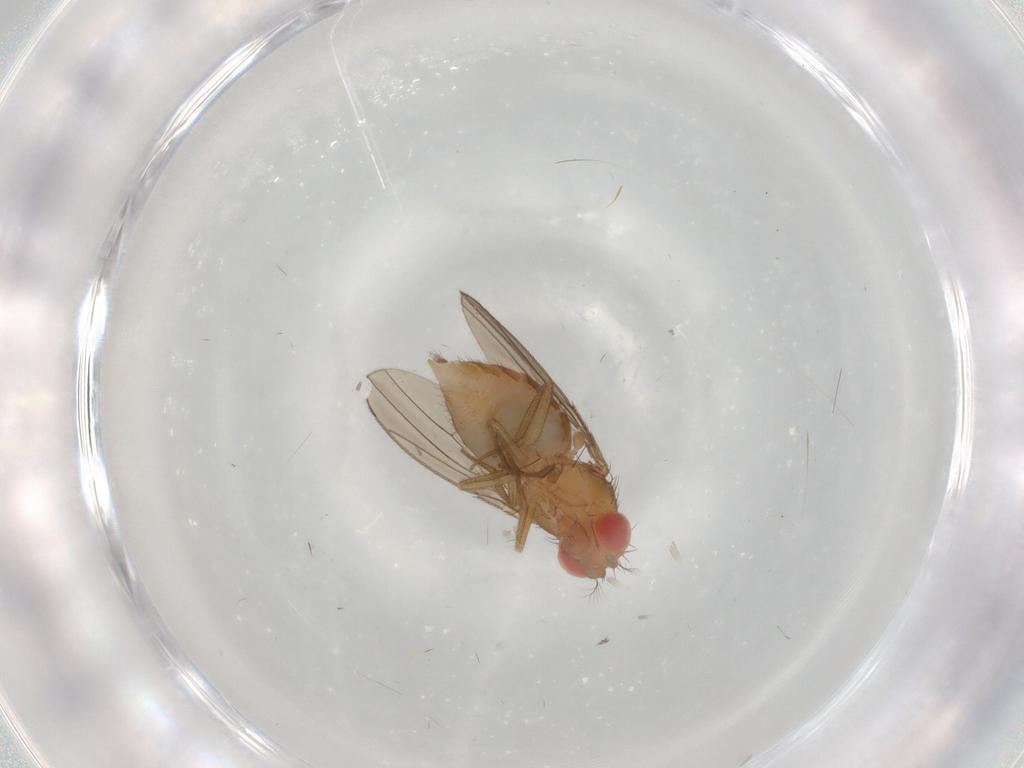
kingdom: Animalia
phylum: Arthropoda
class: Insecta
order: Diptera
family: Drosophilidae
